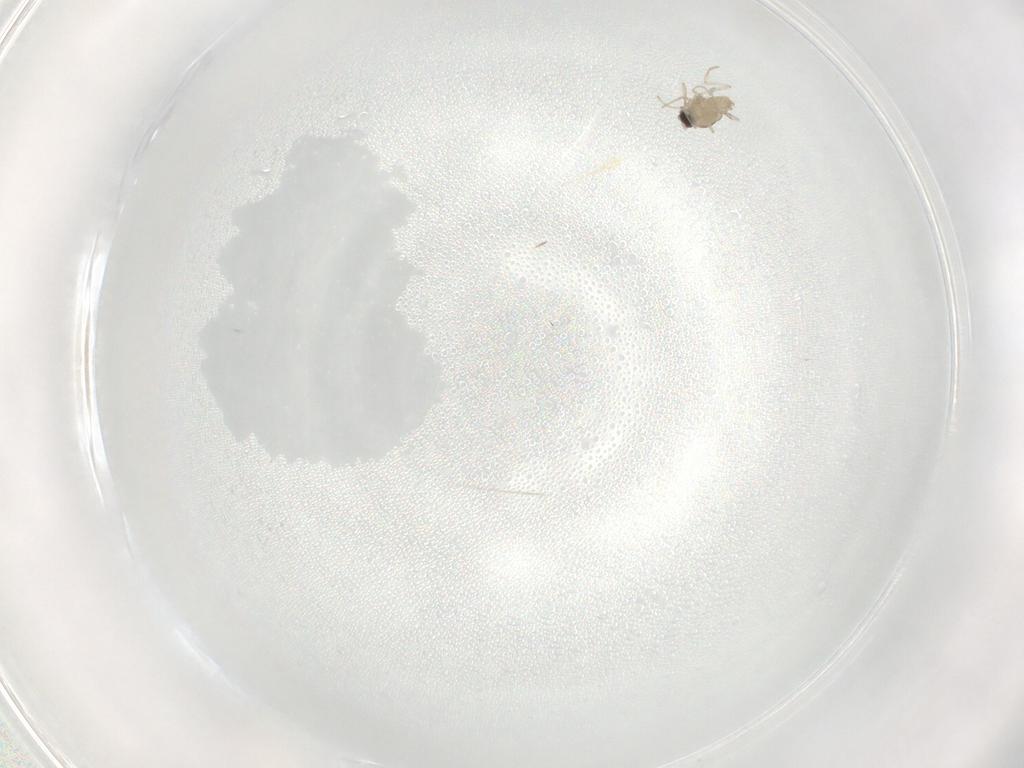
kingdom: Animalia
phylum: Arthropoda
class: Insecta
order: Diptera
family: Cecidomyiidae
